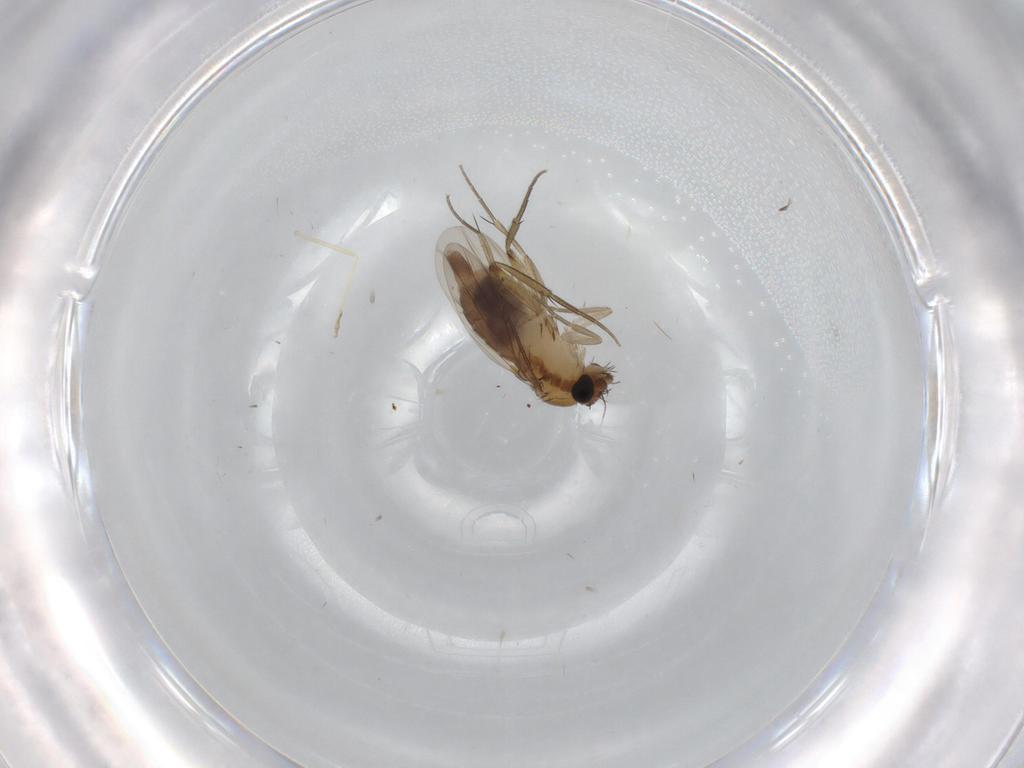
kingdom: Animalia
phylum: Arthropoda
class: Insecta
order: Diptera
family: Phoridae
